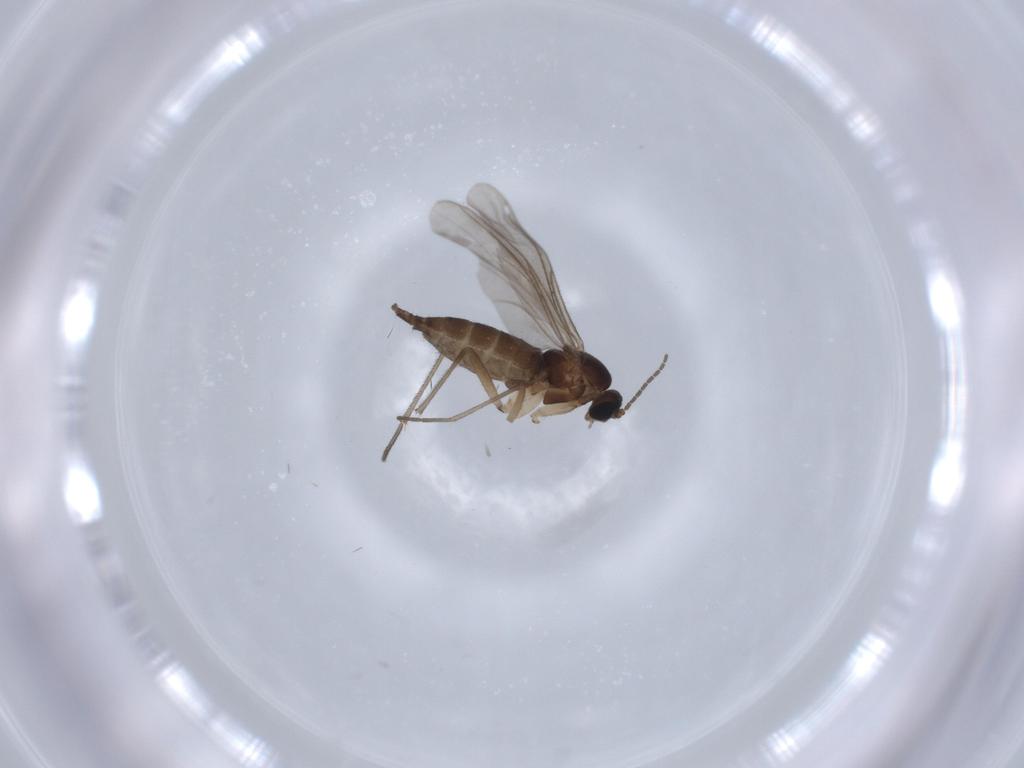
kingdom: Animalia
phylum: Arthropoda
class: Insecta
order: Diptera
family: Sciaridae
